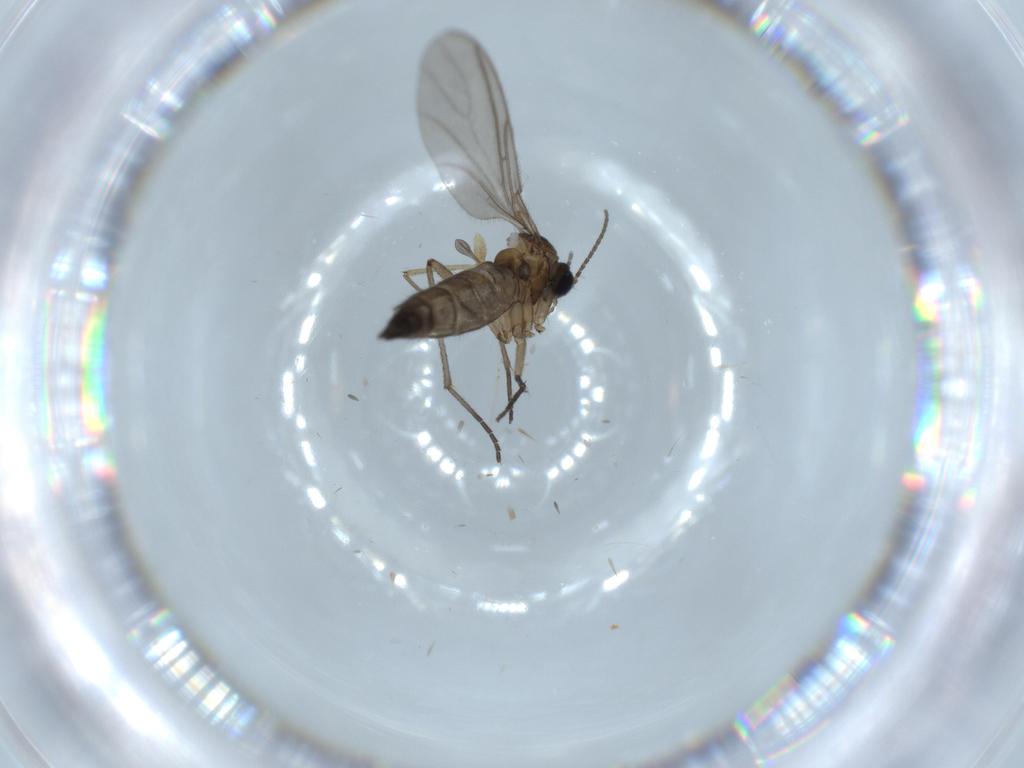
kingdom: Animalia
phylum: Arthropoda
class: Insecta
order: Diptera
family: Sciaridae
